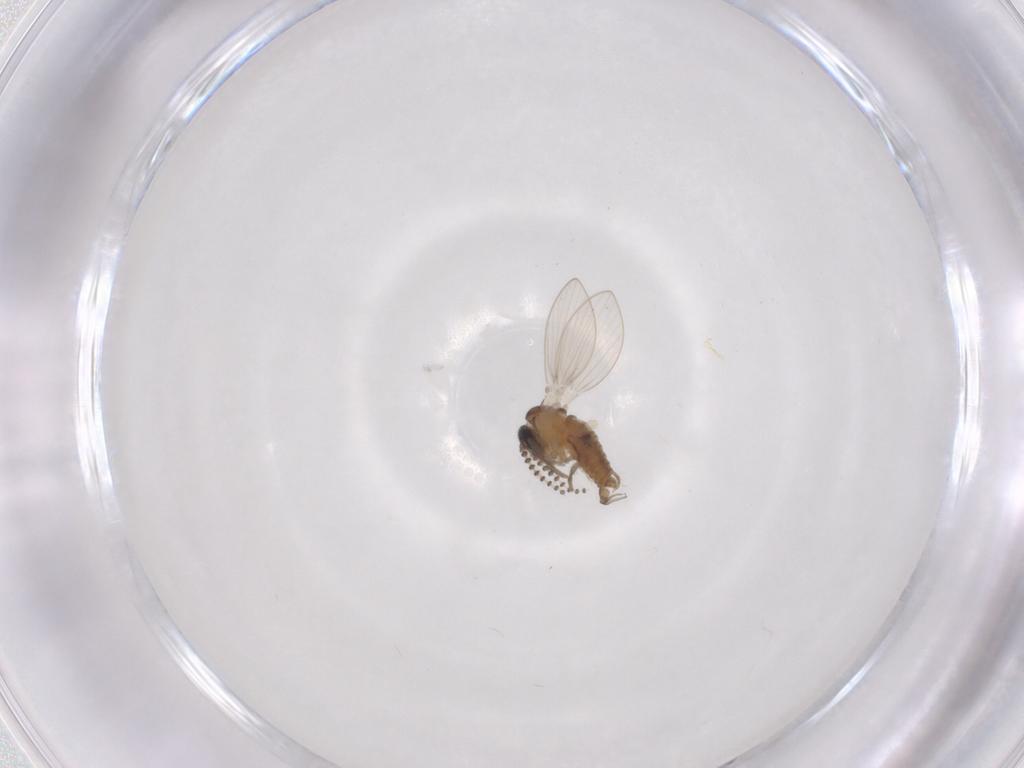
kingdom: Animalia
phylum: Arthropoda
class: Insecta
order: Diptera
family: Psychodidae
